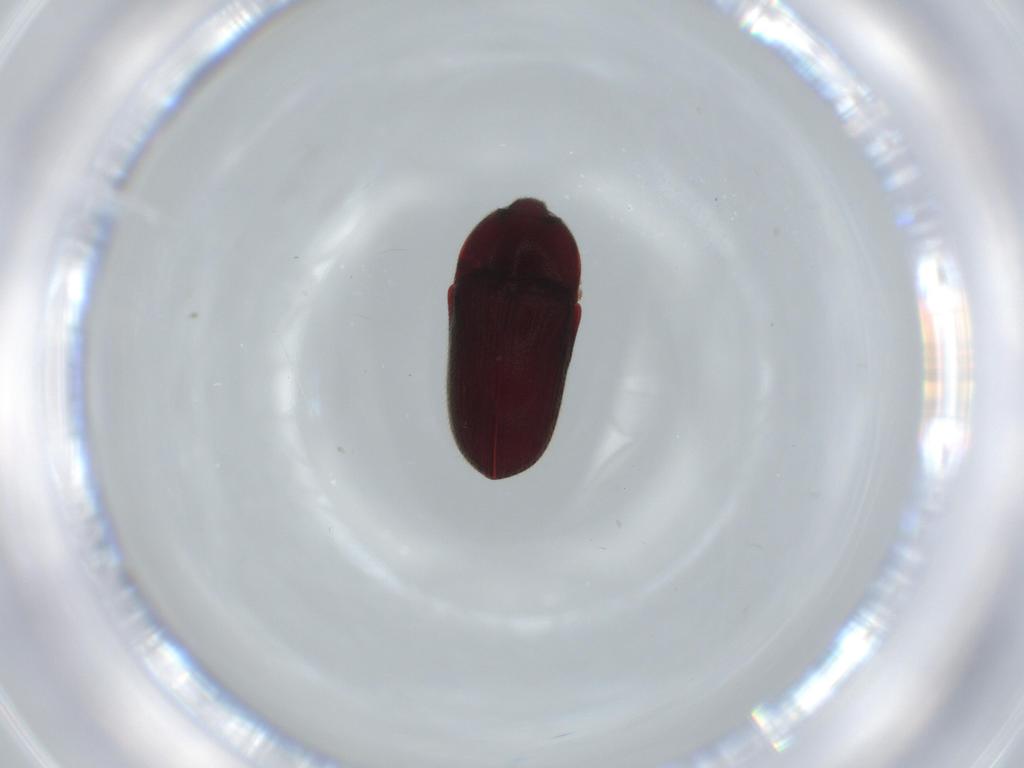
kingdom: Animalia
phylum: Arthropoda
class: Insecta
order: Coleoptera
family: Throscidae
